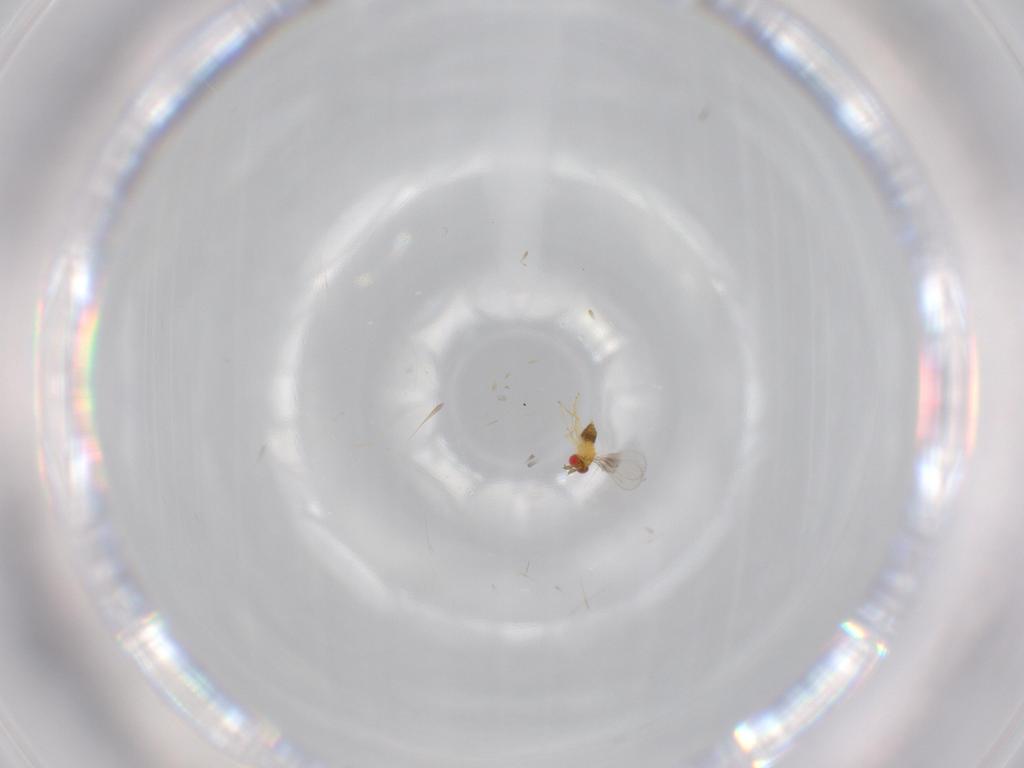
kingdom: Animalia
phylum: Arthropoda
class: Insecta
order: Hymenoptera
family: Trichogrammatidae
